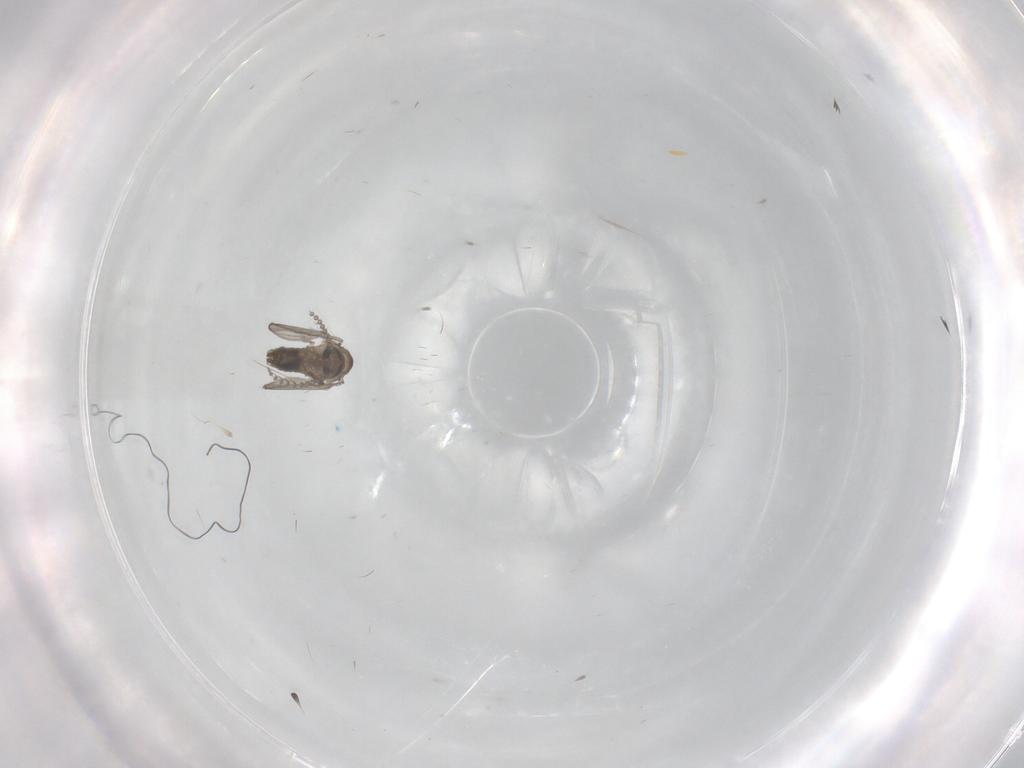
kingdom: Animalia
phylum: Arthropoda
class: Insecta
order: Diptera
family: Psychodidae
